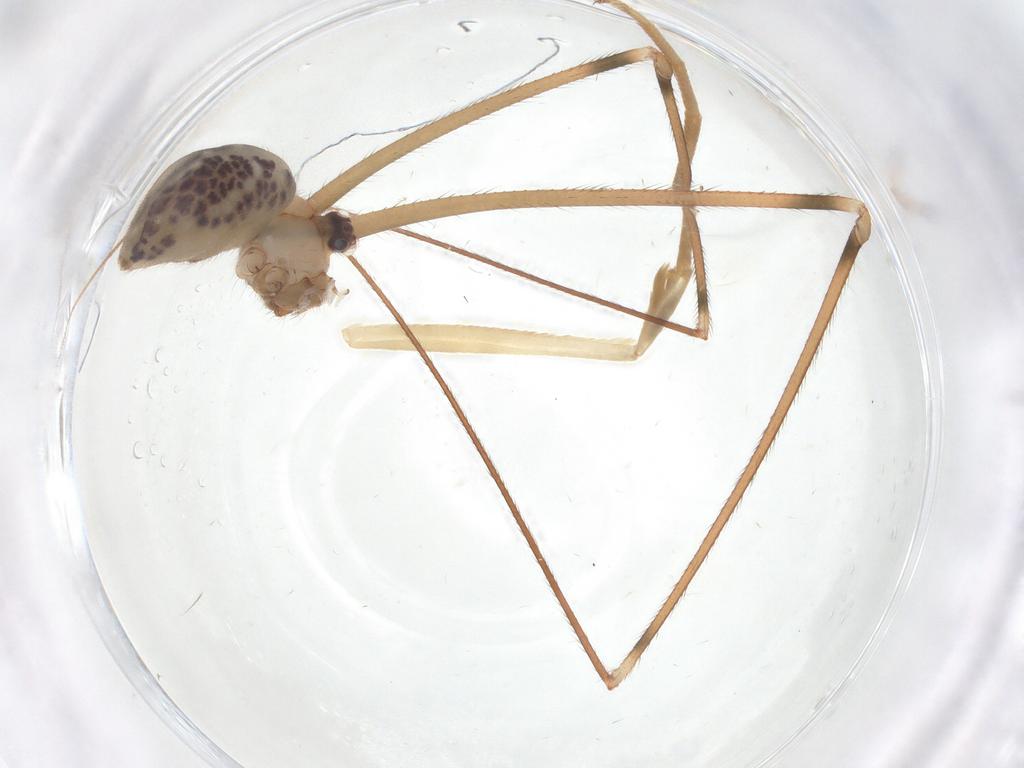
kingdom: Animalia
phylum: Arthropoda
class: Arachnida
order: Araneae
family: Pholcidae
